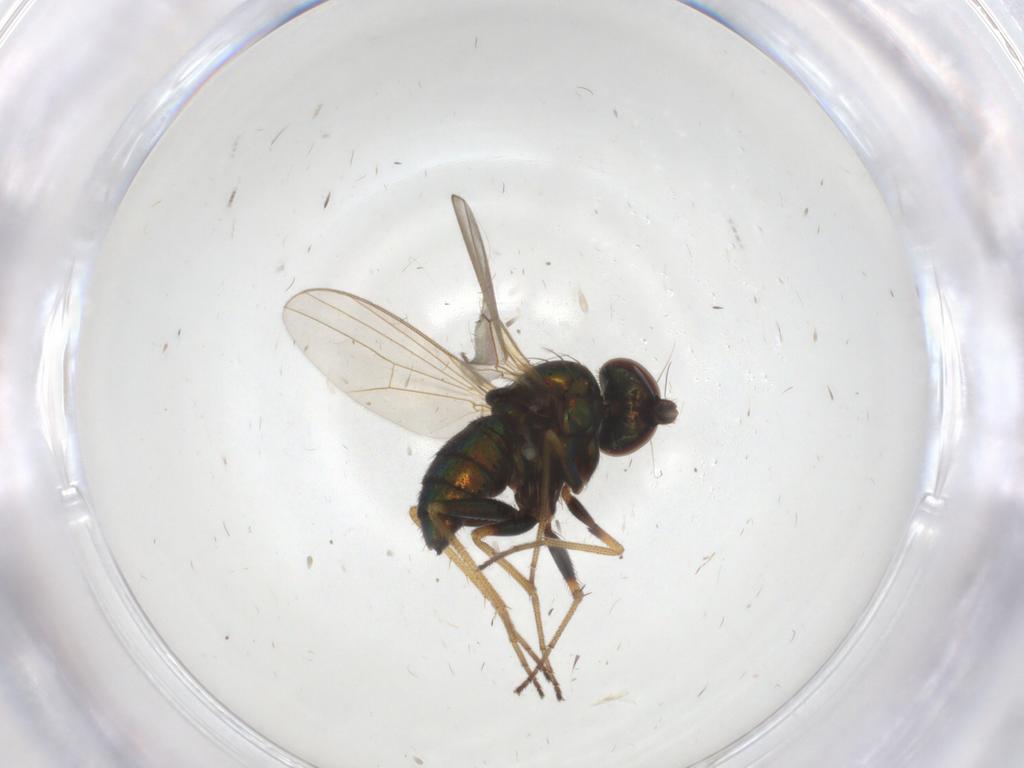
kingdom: Animalia
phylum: Arthropoda
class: Insecta
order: Diptera
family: Dolichopodidae
